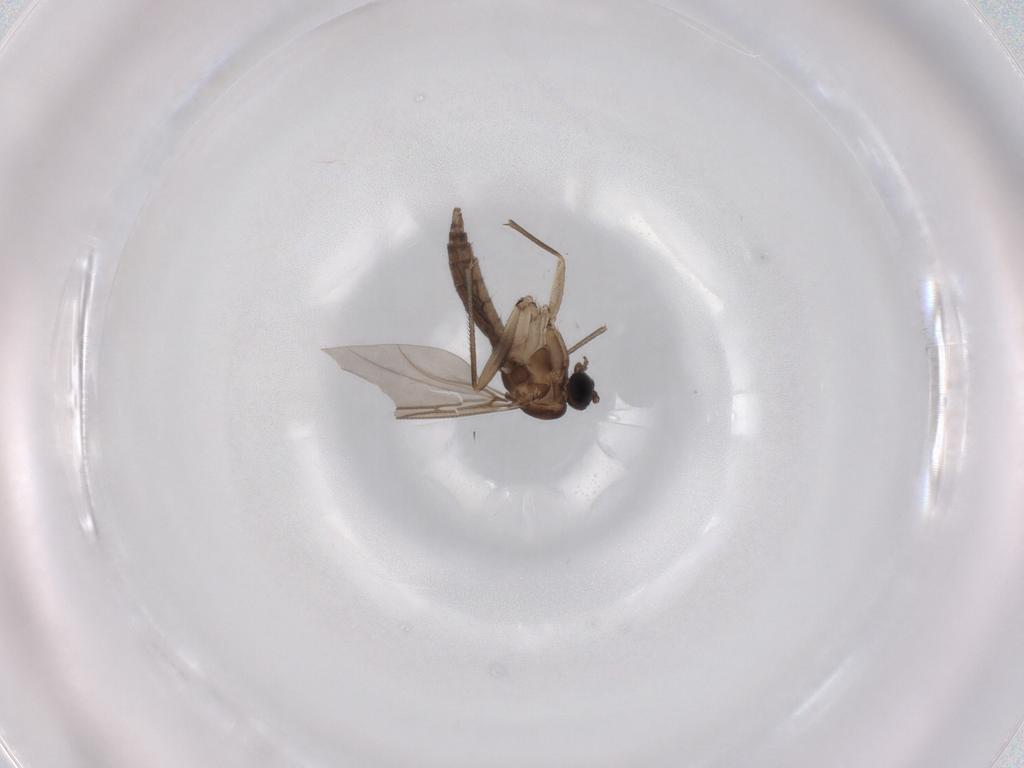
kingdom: Animalia
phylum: Arthropoda
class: Insecta
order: Diptera
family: Sciaridae
